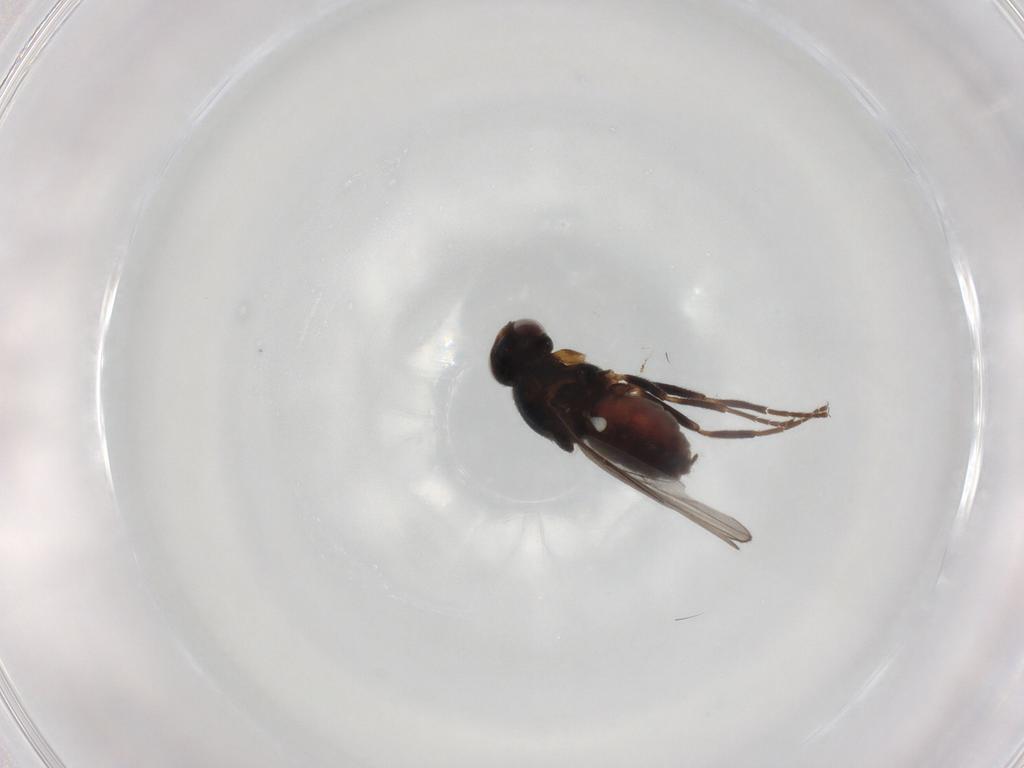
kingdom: Animalia
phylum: Arthropoda
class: Insecta
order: Diptera
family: Chloropidae
